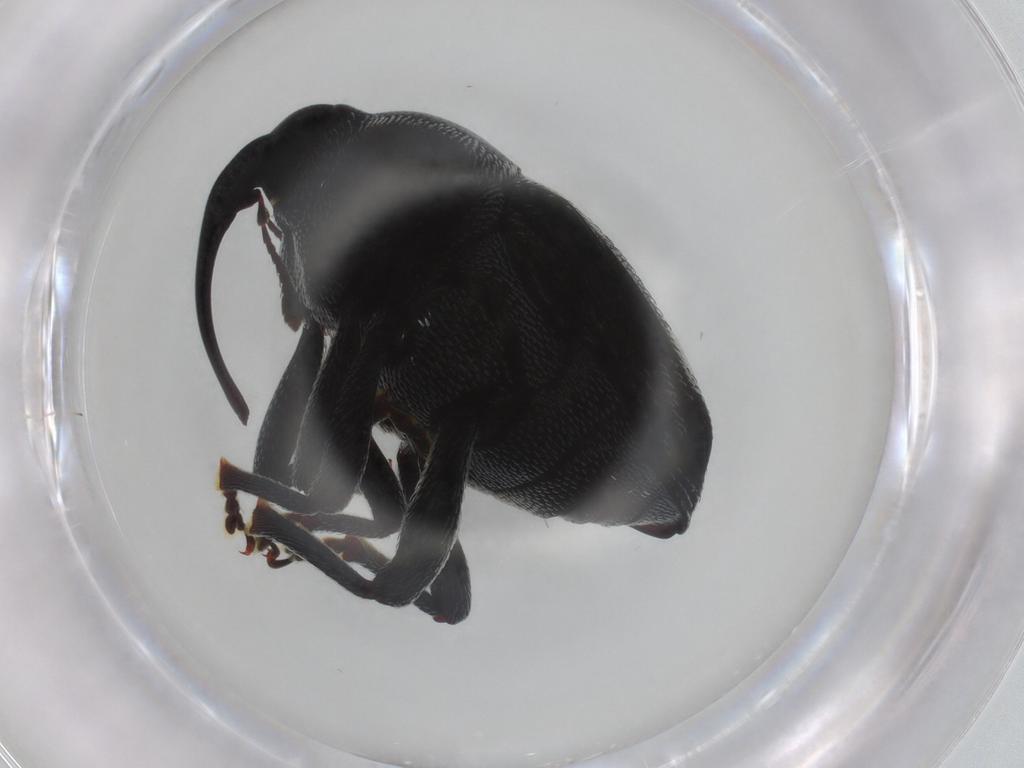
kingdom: Animalia
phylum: Arthropoda
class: Insecta
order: Coleoptera
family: Curculionidae
